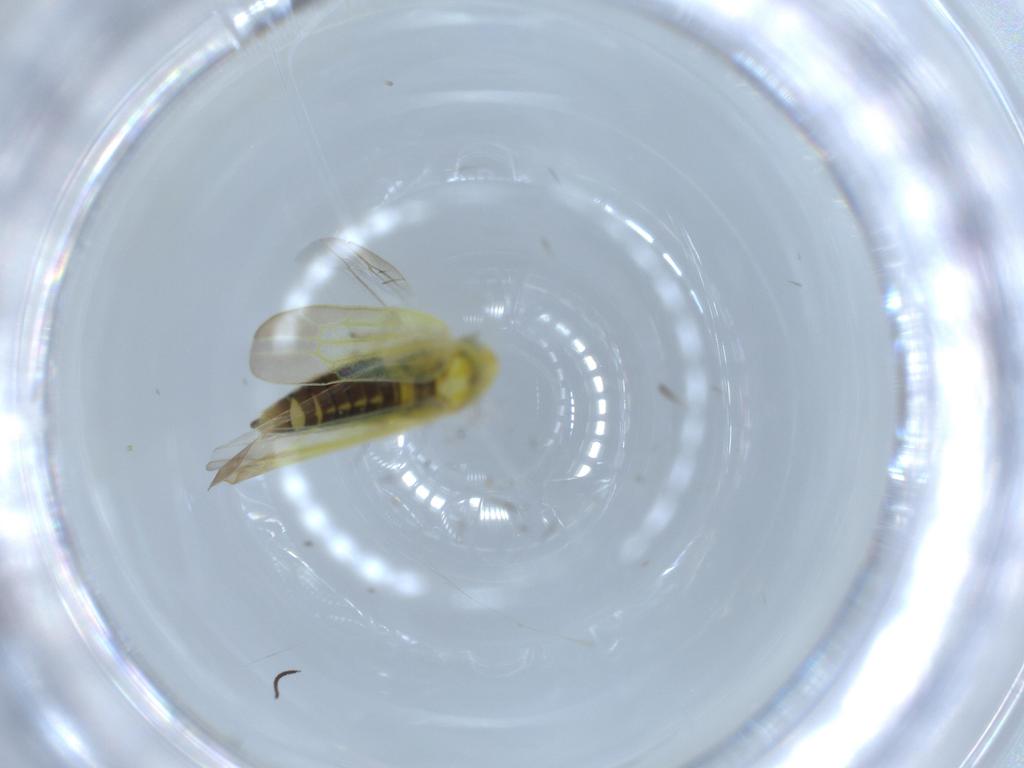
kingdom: Animalia
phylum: Arthropoda
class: Insecta
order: Hemiptera
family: Cicadellidae
